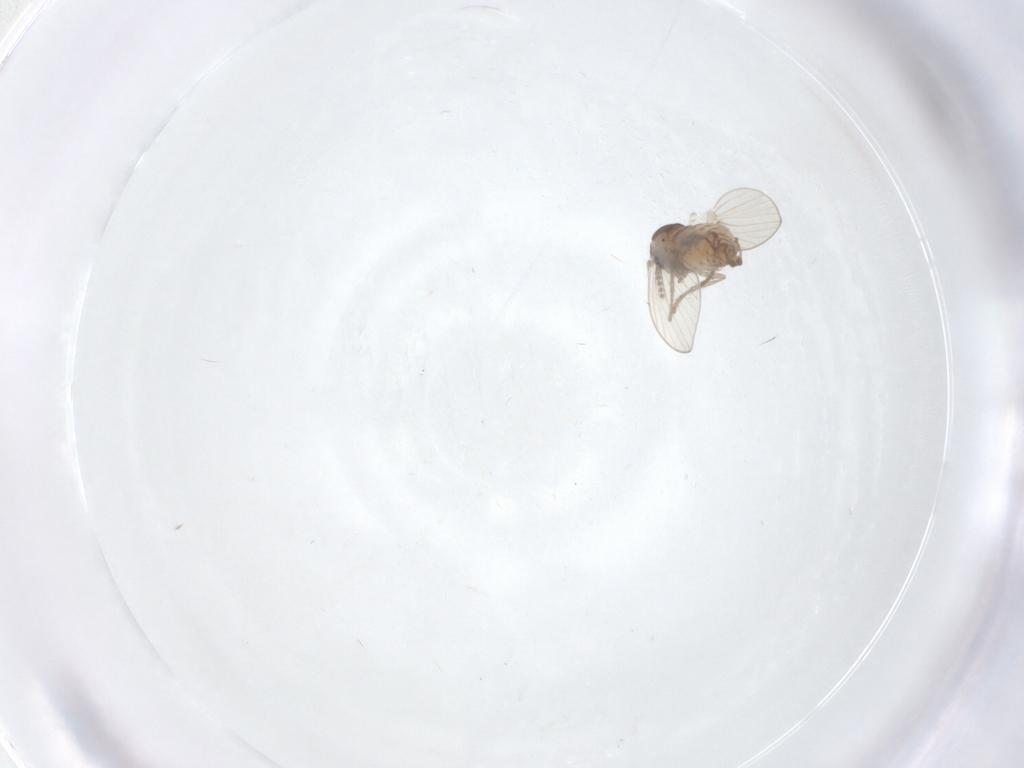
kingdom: Animalia
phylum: Arthropoda
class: Insecta
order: Diptera
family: Psychodidae
